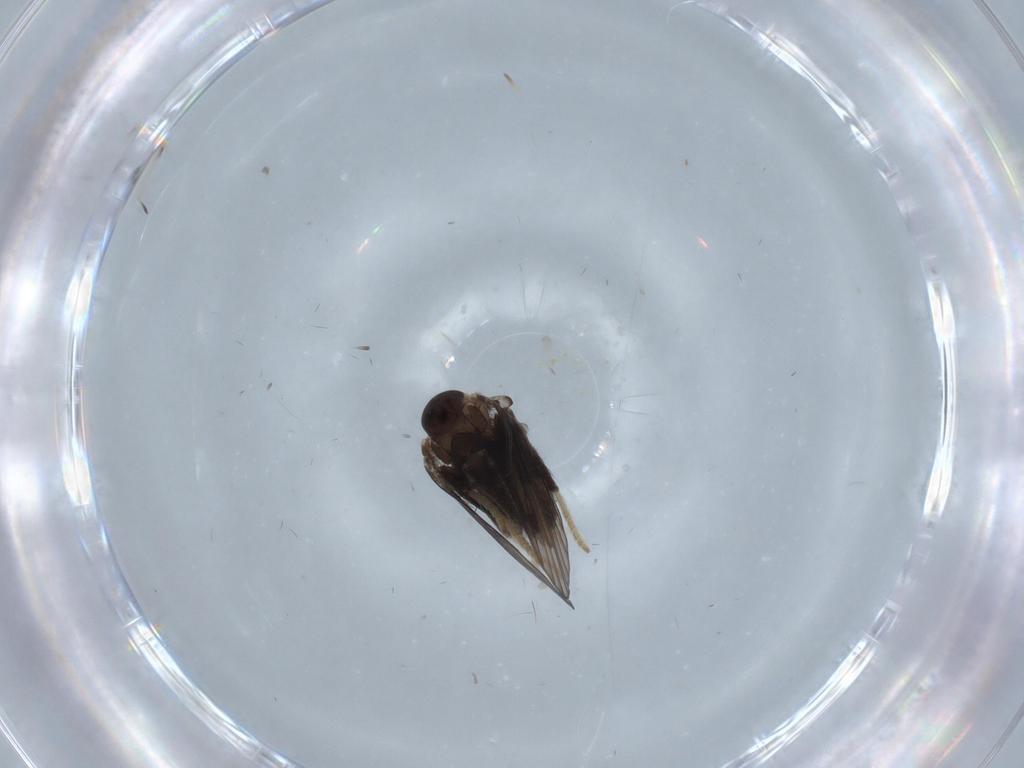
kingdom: Animalia
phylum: Arthropoda
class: Insecta
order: Diptera
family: Psychodidae
